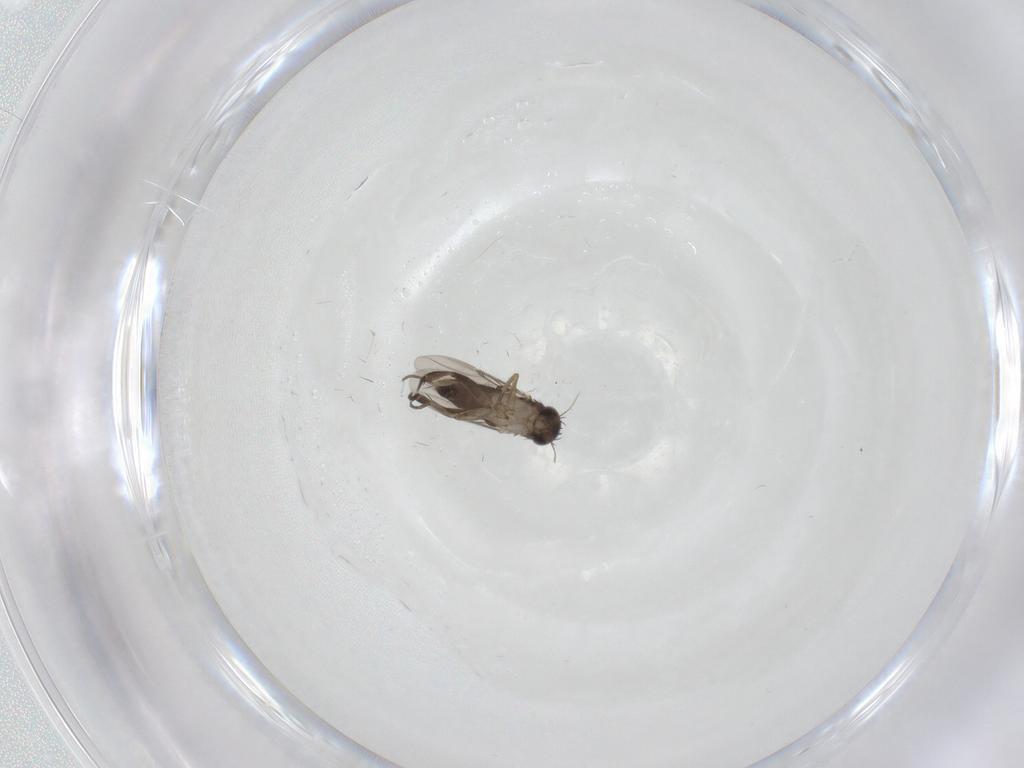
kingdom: Animalia
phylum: Arthropoda
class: Insecta
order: Diptera
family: Phoridae
